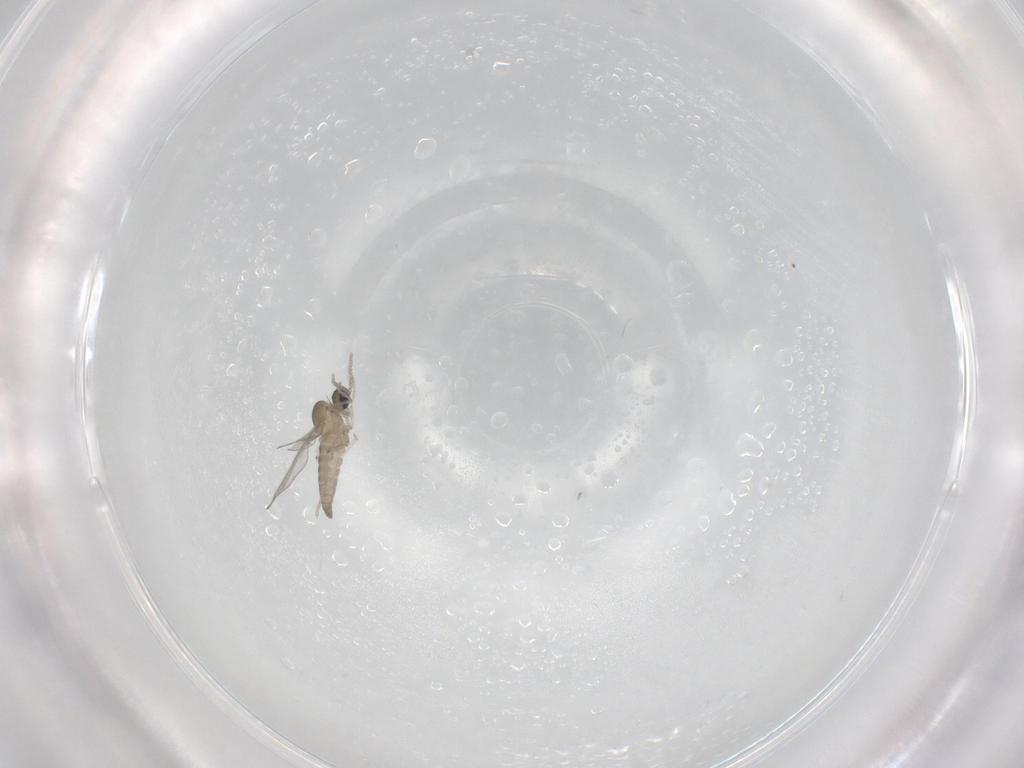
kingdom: Animalia
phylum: Arthropoda
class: Insecta
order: Diptera
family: Cecidomyiidae
